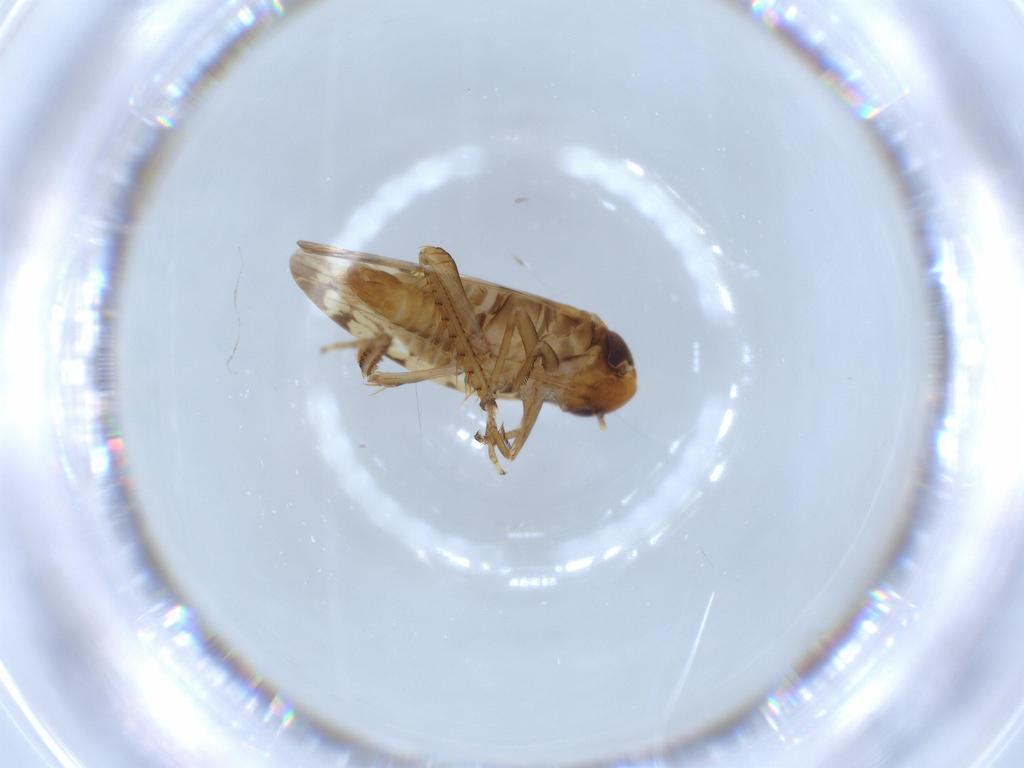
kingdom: Animalia
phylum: Arthropoda
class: Insecta
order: Hemiptera
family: Cicadellidae
